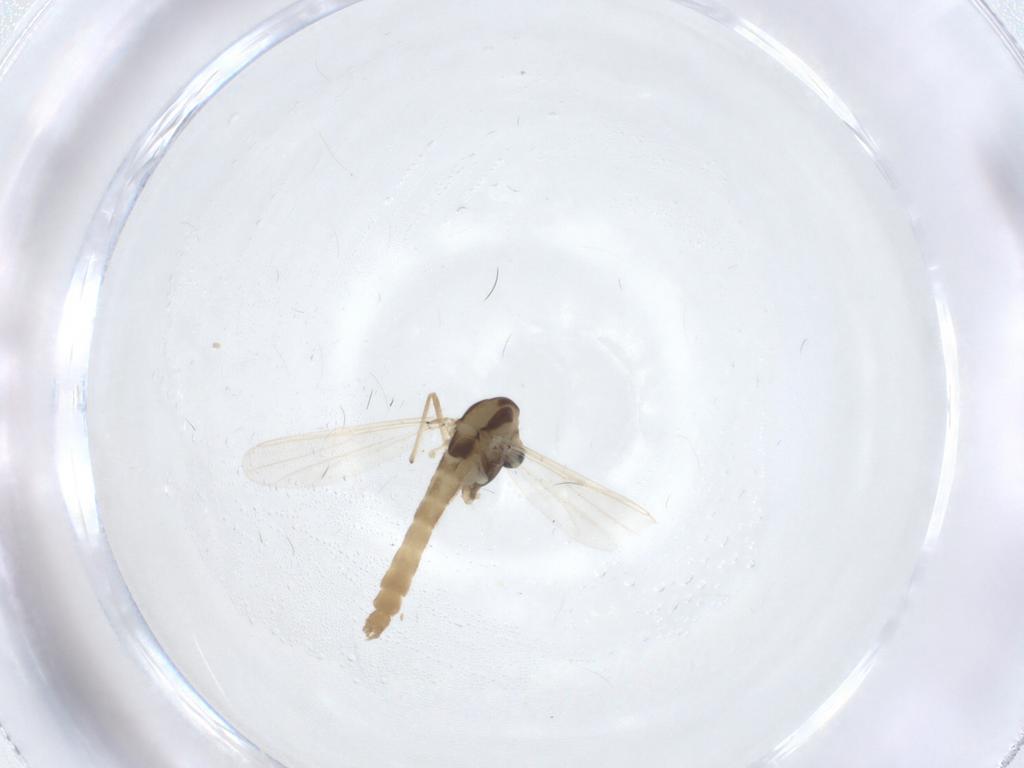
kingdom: Animalia
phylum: Arthropoda
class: Insecta
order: Diptera
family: Chironomidae
